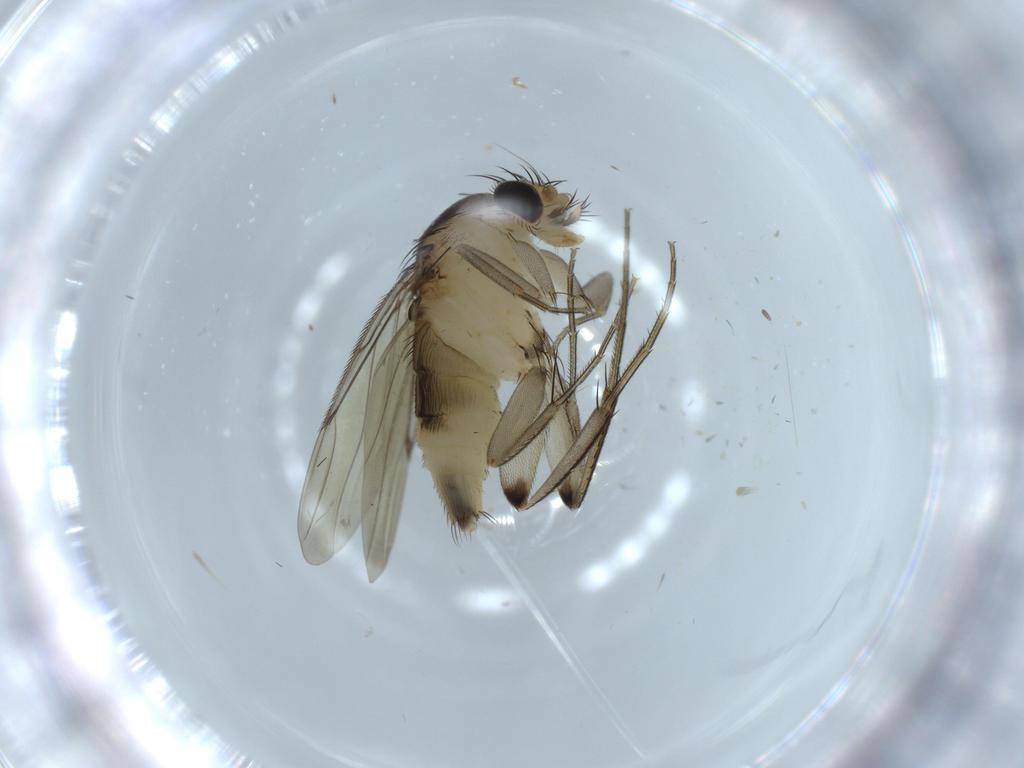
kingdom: Animalia
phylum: Arthropoda
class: Insecta
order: Diptera
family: Phoridae
